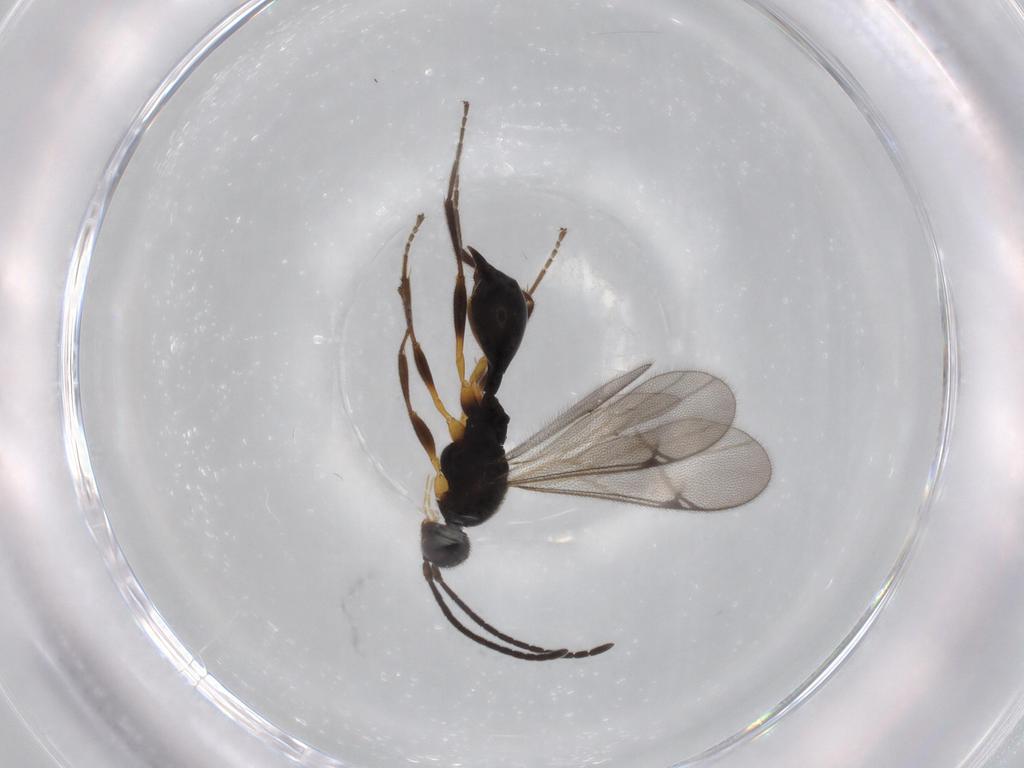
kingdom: Animalia
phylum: Arthropoda
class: Insecta
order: Hymenoptera
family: Proctotrupidae
